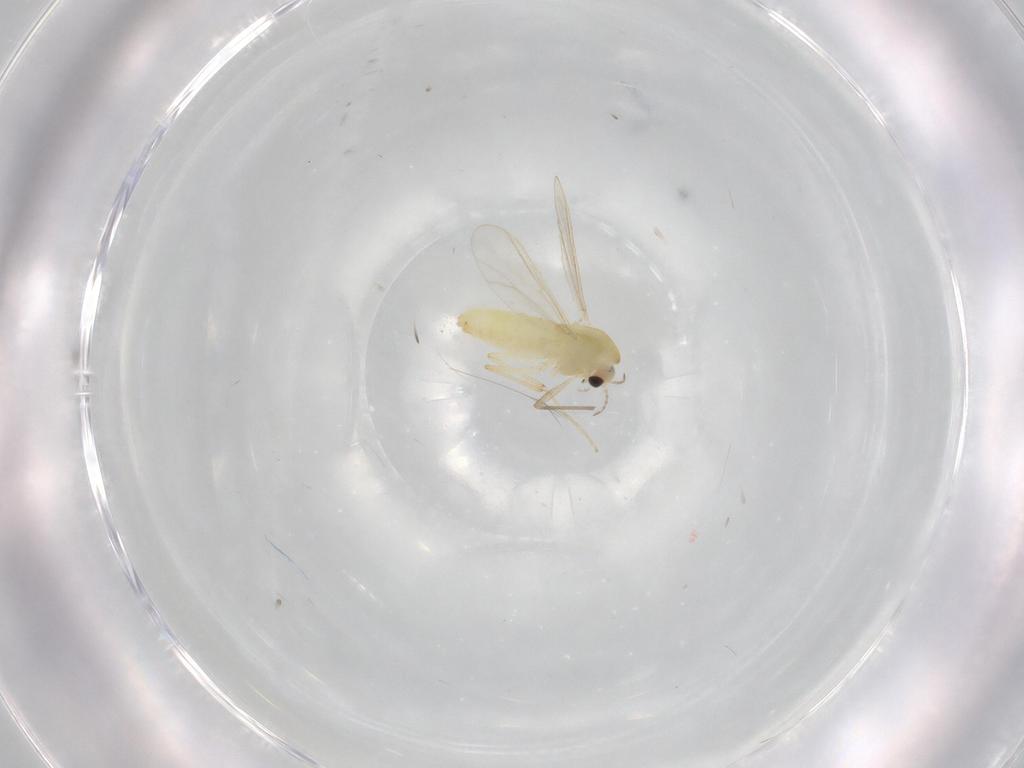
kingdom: Animalia
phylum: Arthropoda
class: Insecta
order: Diptera
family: Chironomidae
